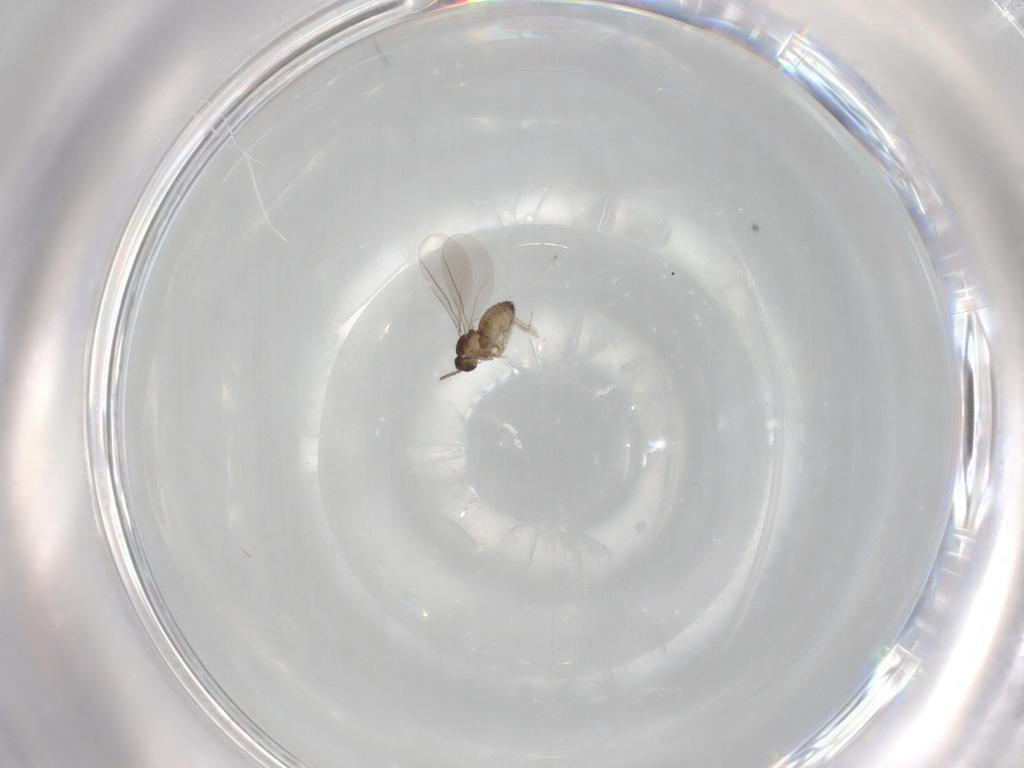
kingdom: Animalia
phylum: Arthropoda
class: Insecta
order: Diptera
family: Cecidomyiidae
